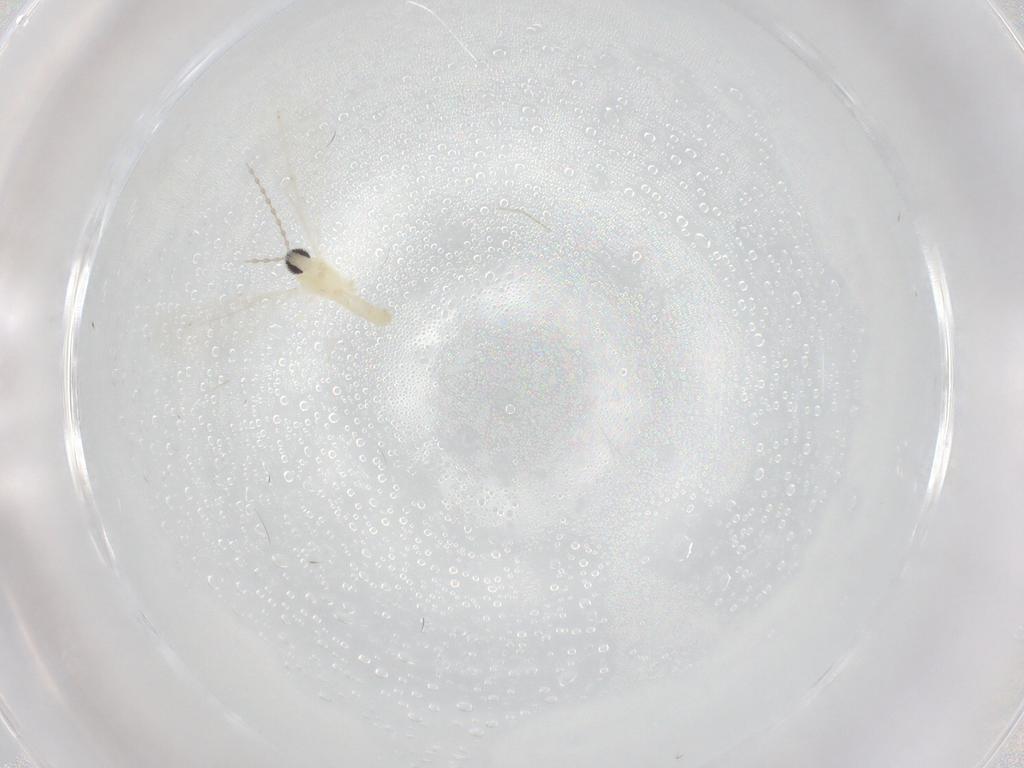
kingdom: Animalia
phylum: Arthropoda
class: Insecta
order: Diptera
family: Cecidomyiidae
